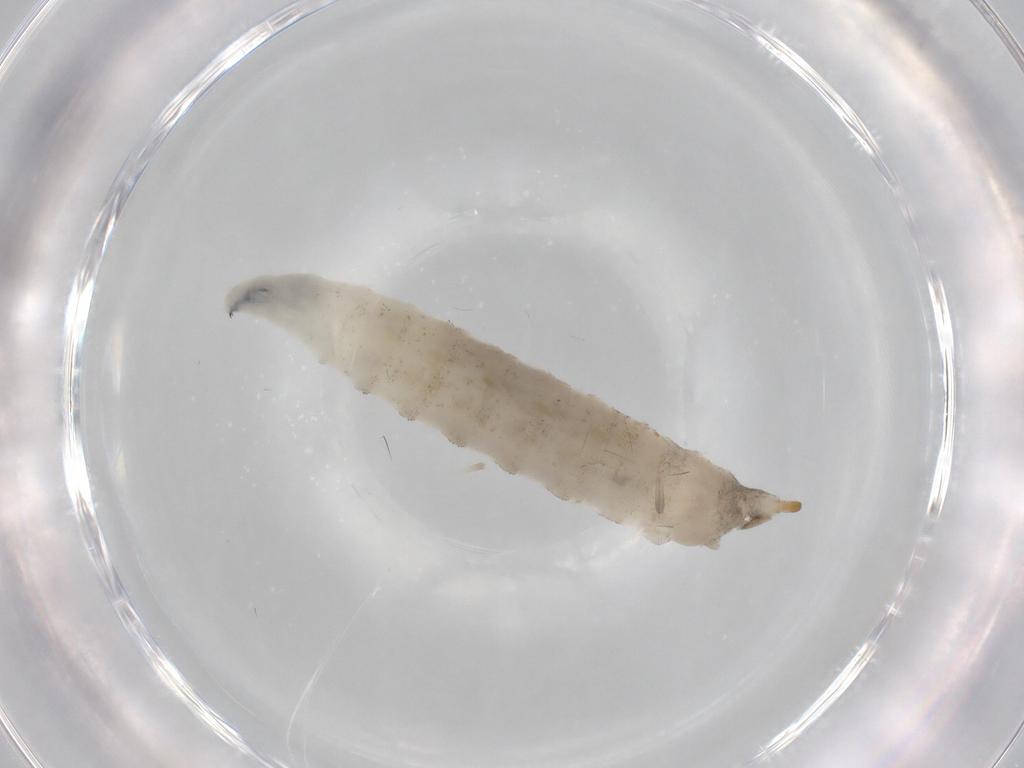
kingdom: Animalia
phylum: Arthropoda
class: Insecta
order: Diptera
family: Drosophilidae
